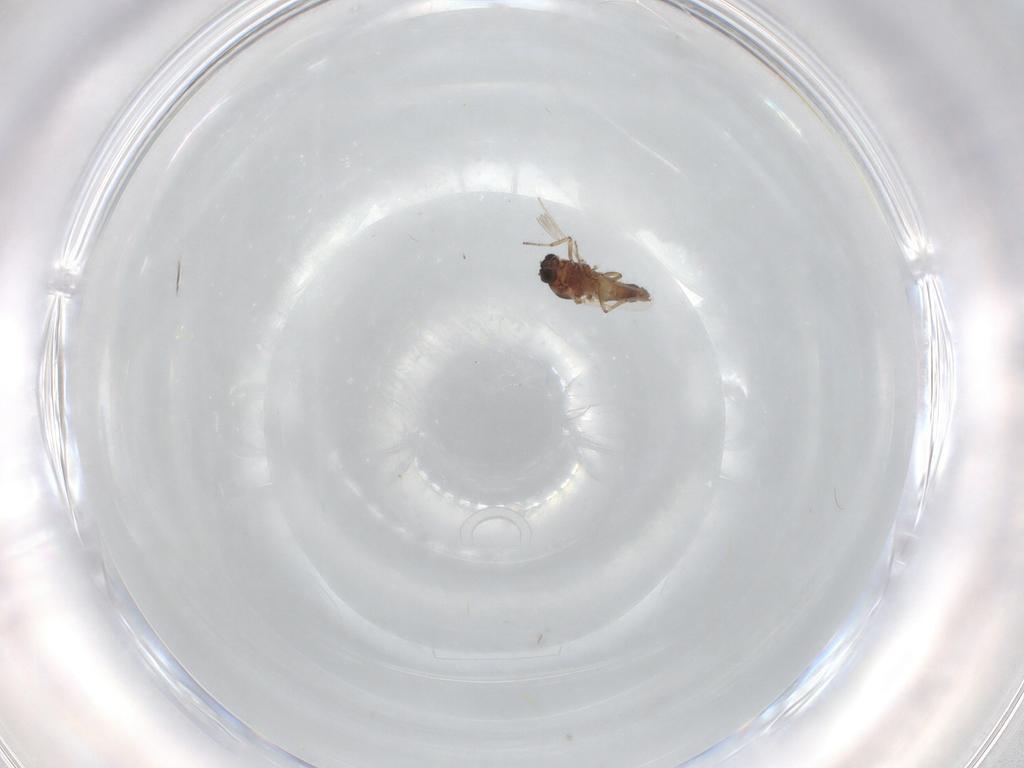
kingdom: Animalia
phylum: Arthropoda
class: Insecta
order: Diptera
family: Ceratopogonidae
